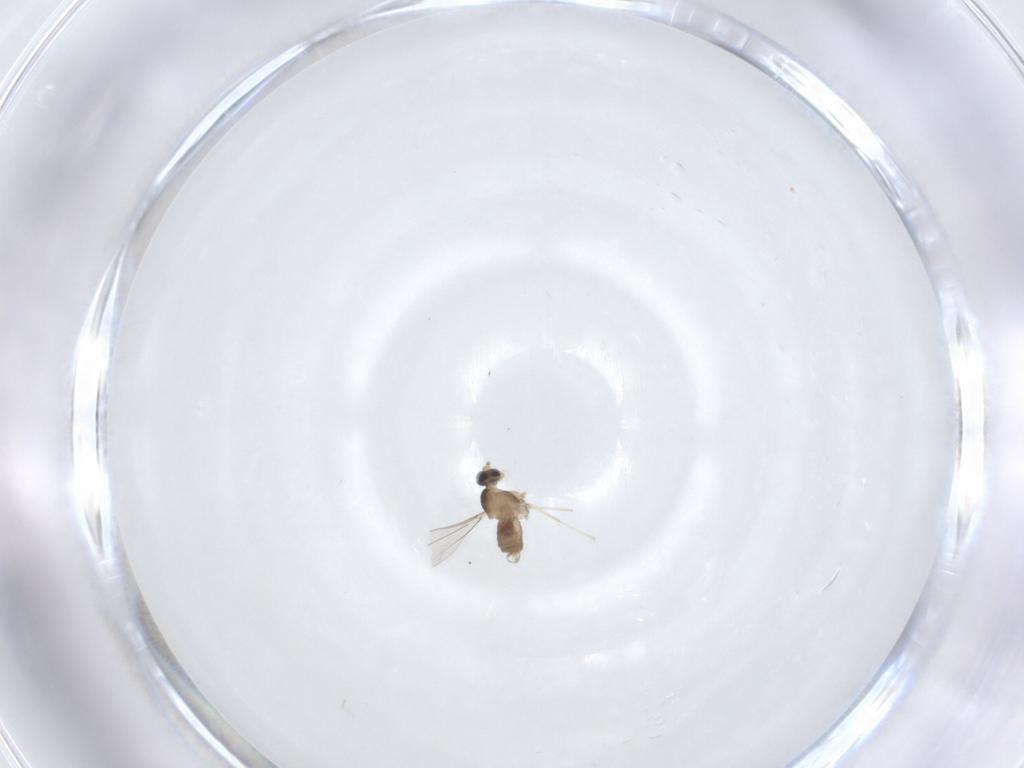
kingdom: Animalia
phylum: Arthropoda
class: Insecta
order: Diptera
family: Cecidomyiidae
